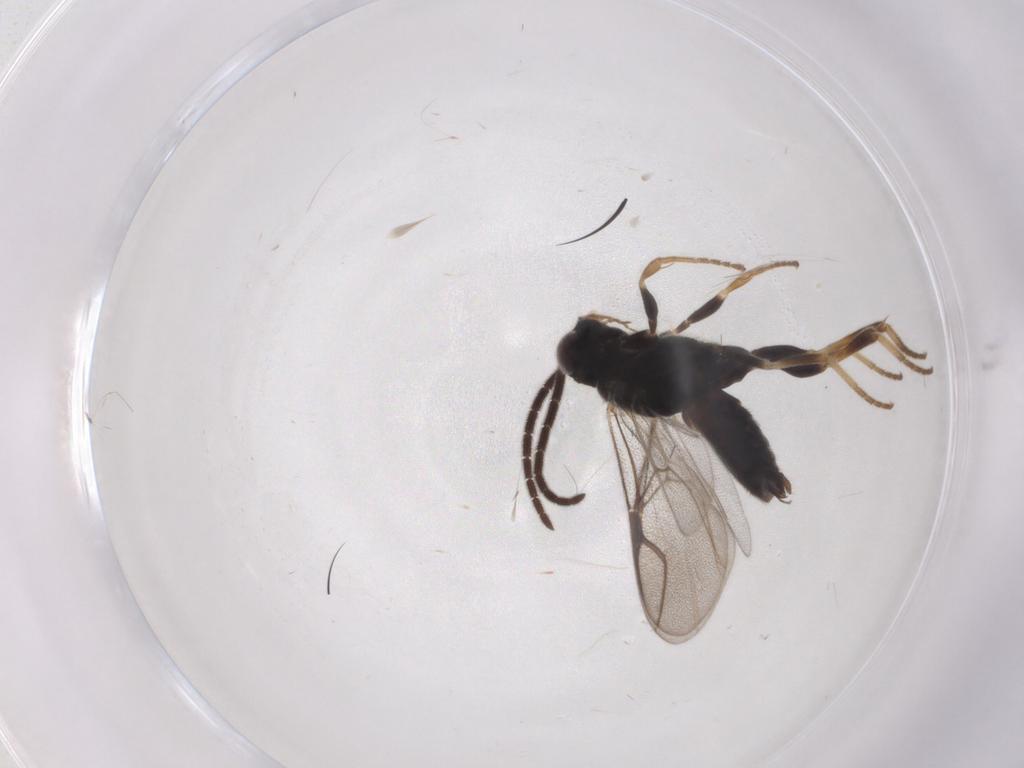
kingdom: Animalia
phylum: Arthropoda
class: Insecta
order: Hymenoptera
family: Dryinidae
